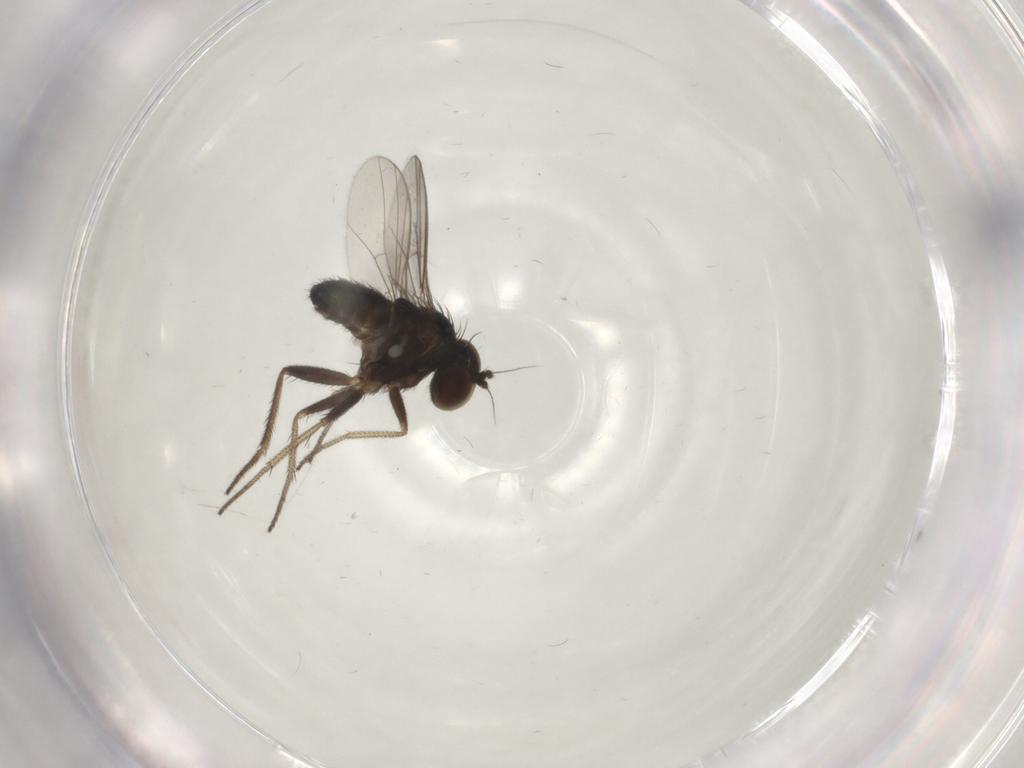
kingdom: Animalia
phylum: Arthropoda
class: Insecta
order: Diptera
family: Dolichopodidae
